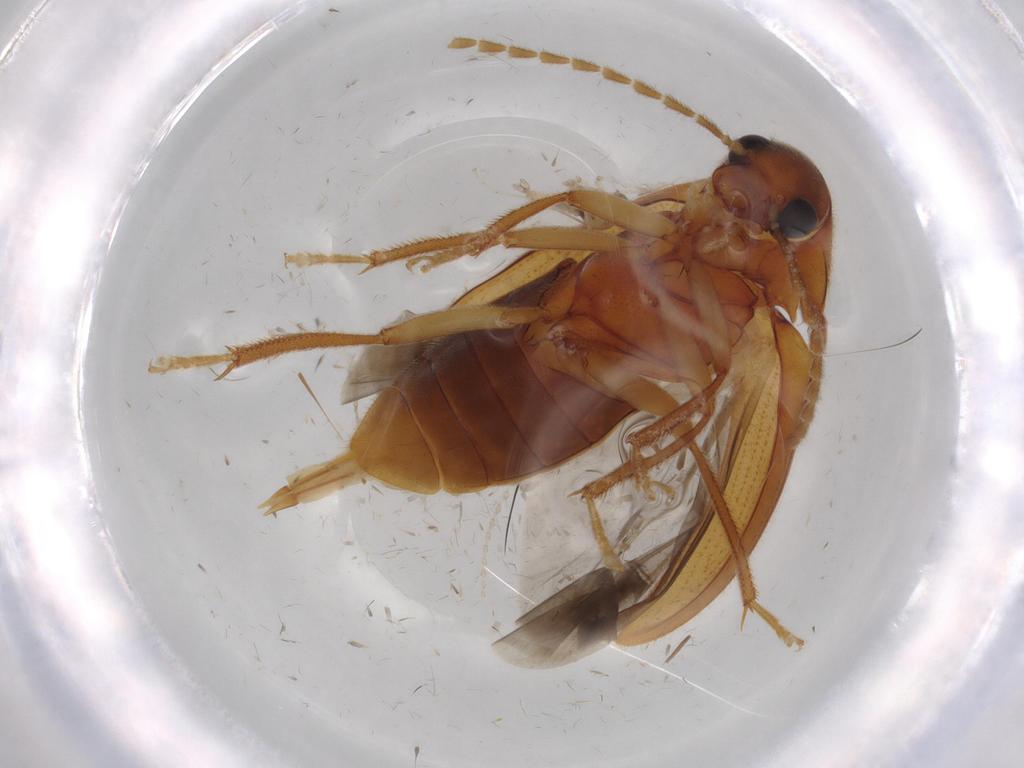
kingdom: Animalia
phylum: Arthropoda
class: Insecta
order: Coleoptera
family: Ptilodactylidae
